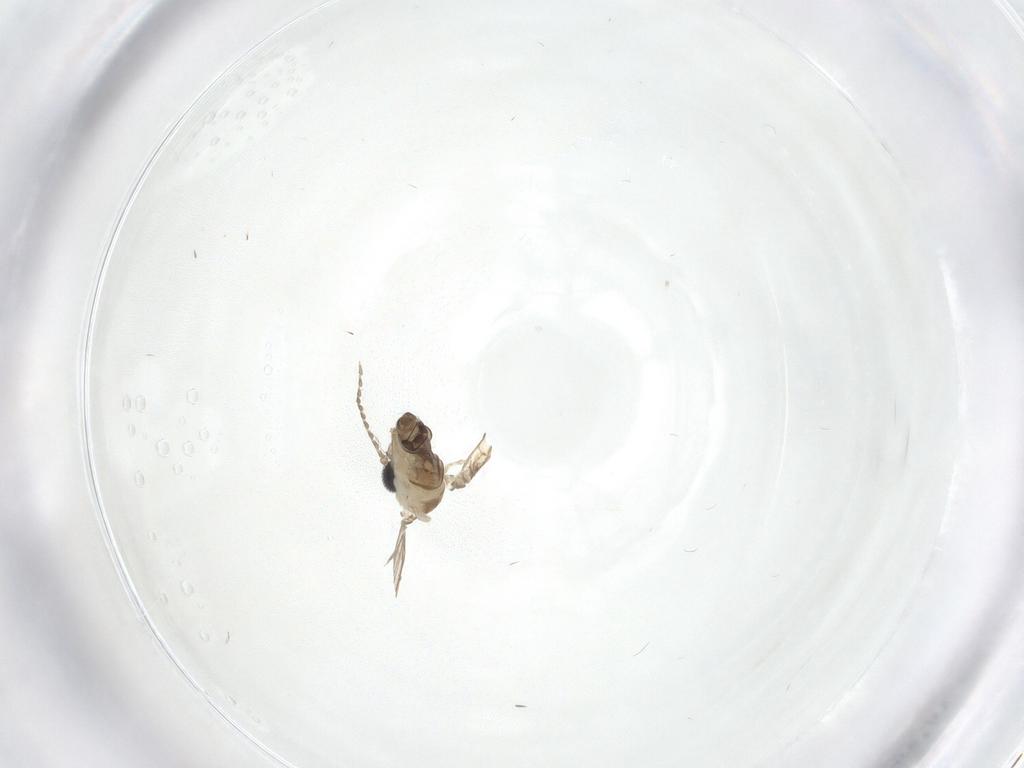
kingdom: Animalia
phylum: Arthropoda
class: Insecta
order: Diptera
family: Psychodidae
